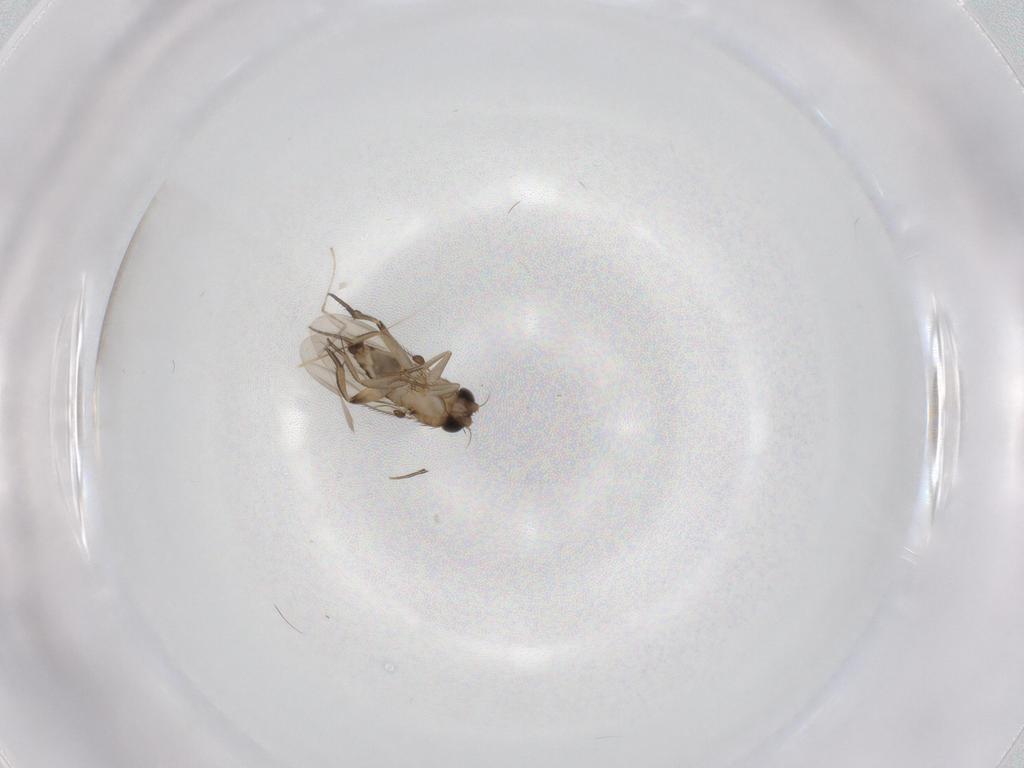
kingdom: Animalia
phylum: Arthropoda
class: Insecta
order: Diptera
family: Phoridae
